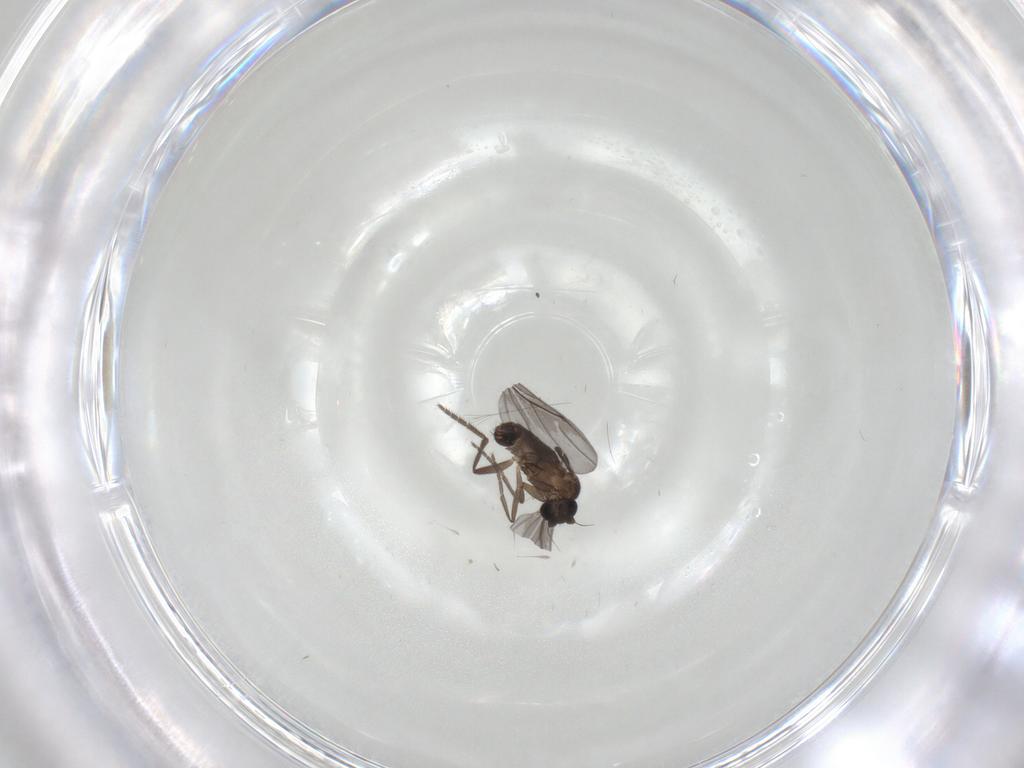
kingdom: Animalia
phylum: Arthropoda
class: Insecta
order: Diptera
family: Phoridae
